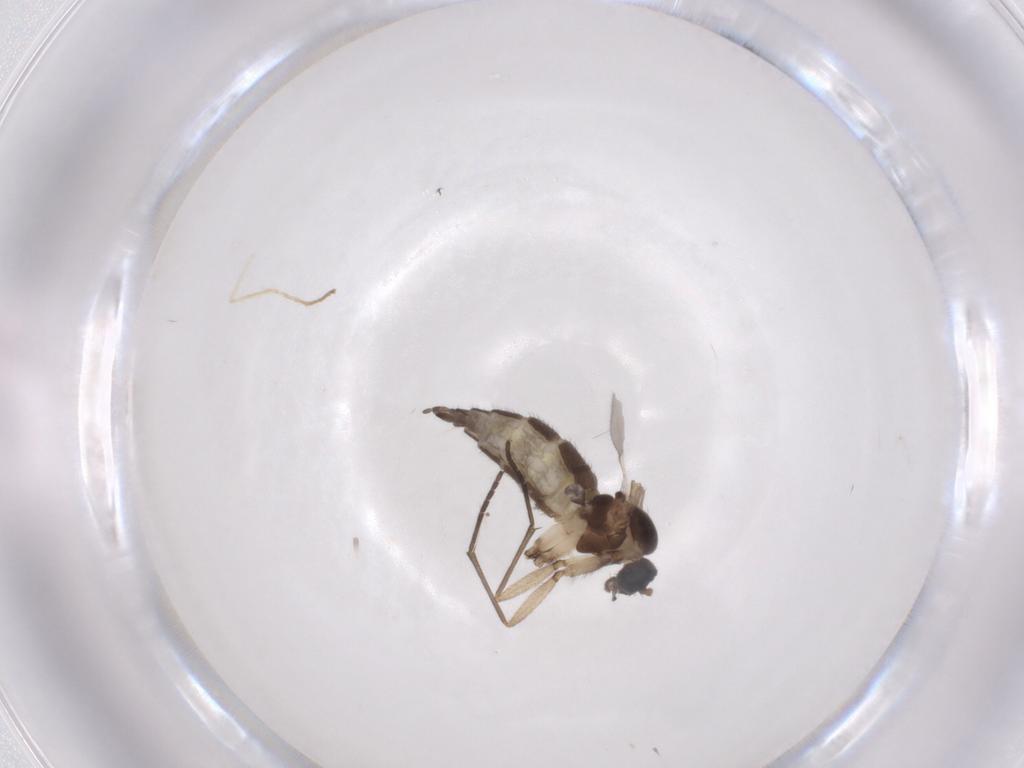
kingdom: Animalia
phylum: Arthropoda
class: Insecta
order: Diptera
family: Sciaridae
